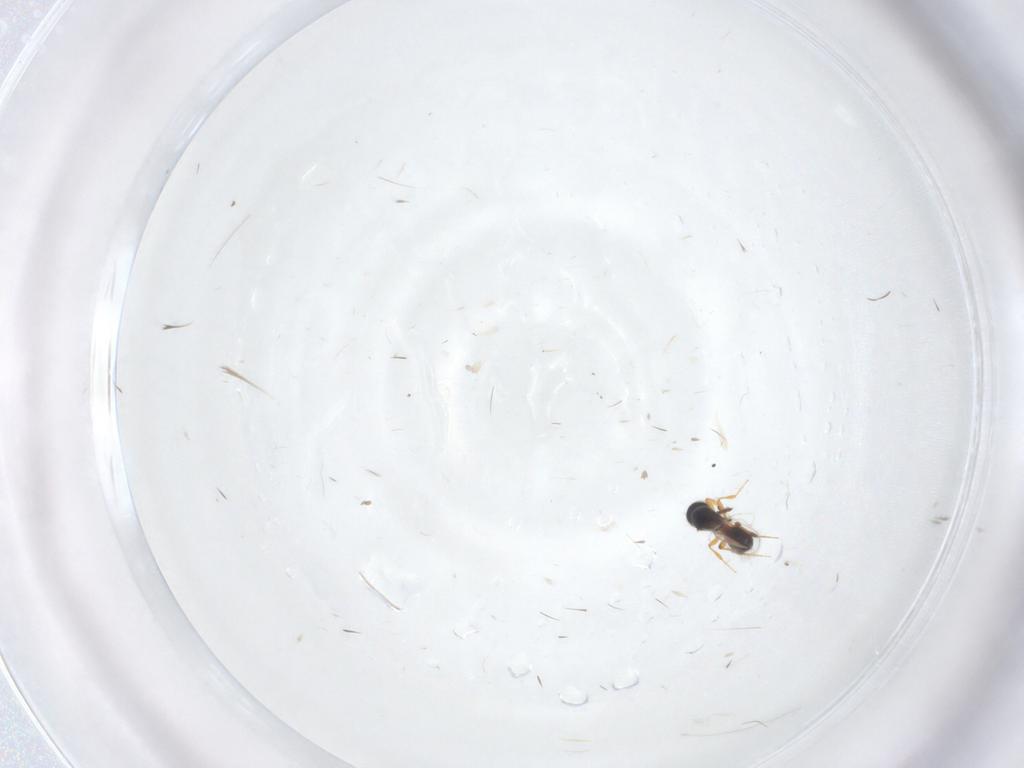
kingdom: Animalia
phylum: Arthropoda
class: Insecta
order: Hymenoptera
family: Platygastridae
